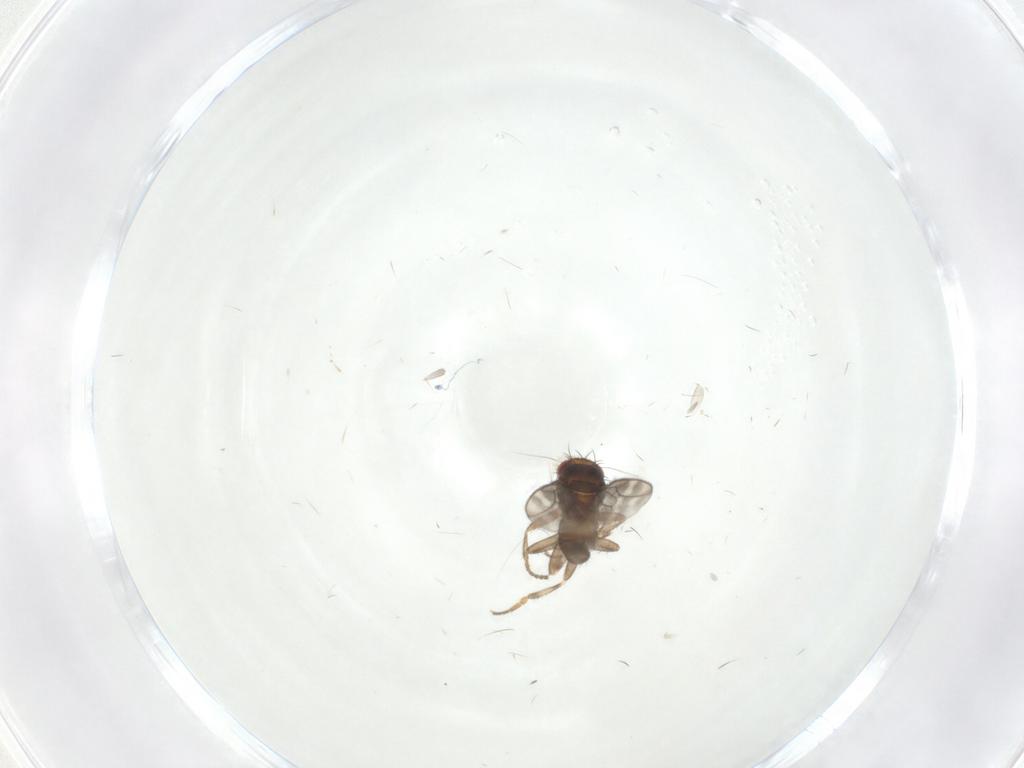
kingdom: Animalia
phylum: Arthropoda
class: Insecta
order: Diptera
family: Sphaeroceridae
